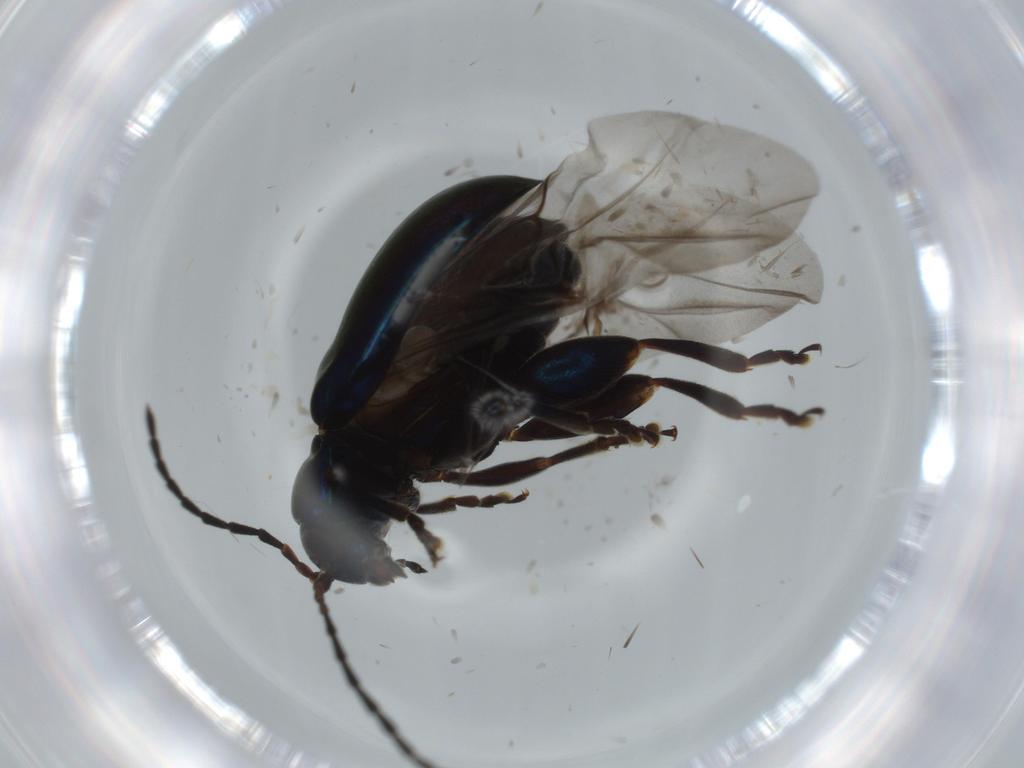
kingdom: Animalia
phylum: Arthropoda
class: Insecta
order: Coleoptera
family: Chrysomelidae
